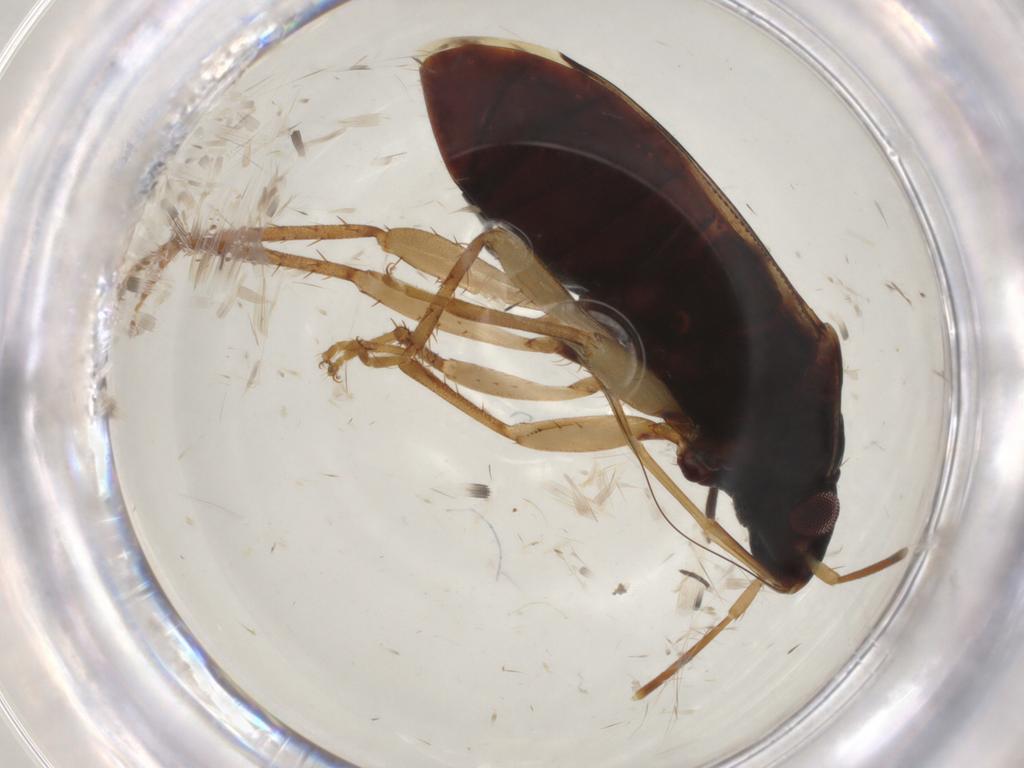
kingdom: Animalia
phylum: Arthropoda
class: Insecta
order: Hemiptera
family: Rhyparochromidae
